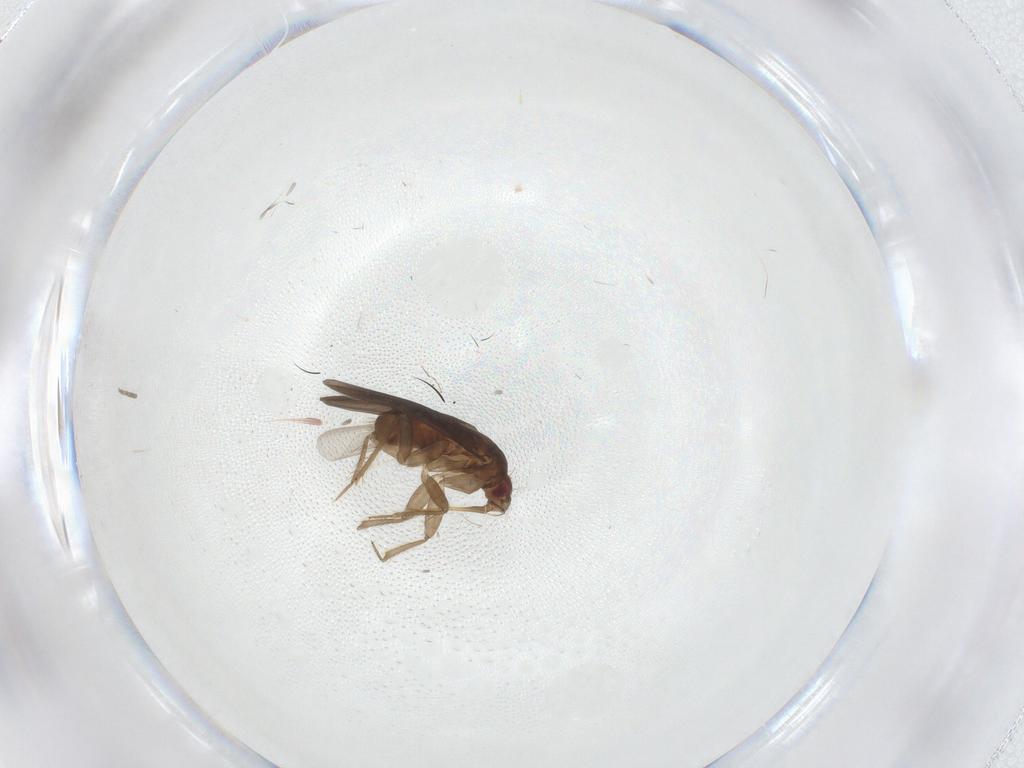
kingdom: Animalia
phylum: Arthropoda
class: Insecta
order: Hemiptera
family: Ceratocombidae
